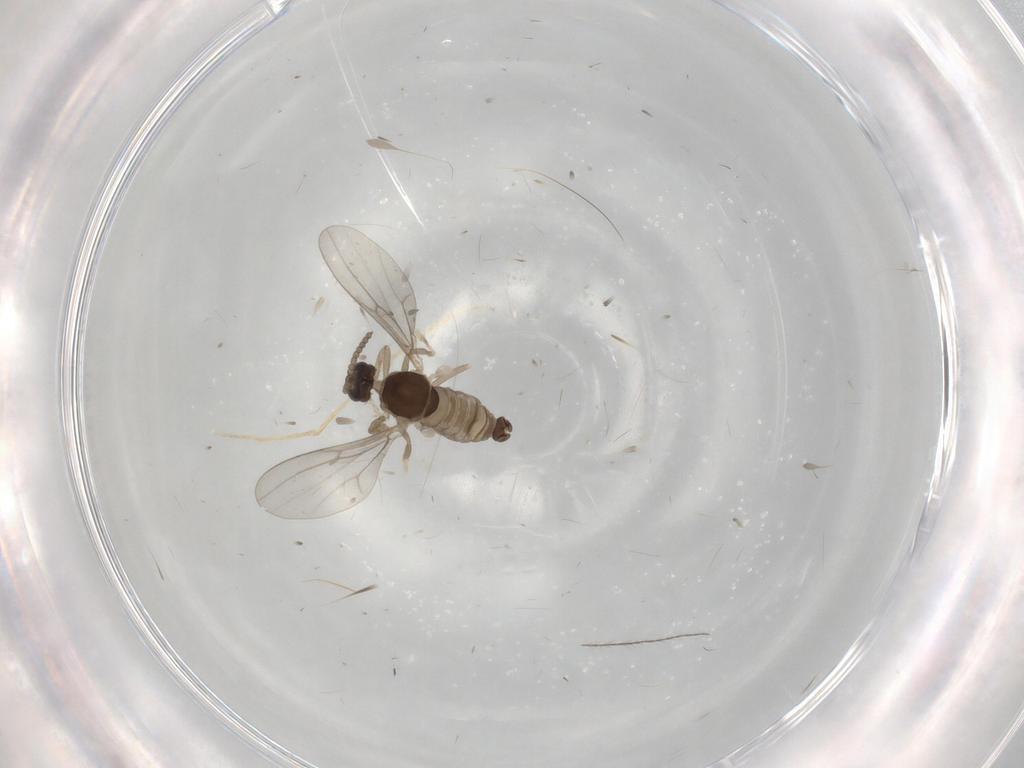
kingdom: Animalia
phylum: Arthropoda
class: Insecta
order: Diptera
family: Cecidomyiidae
